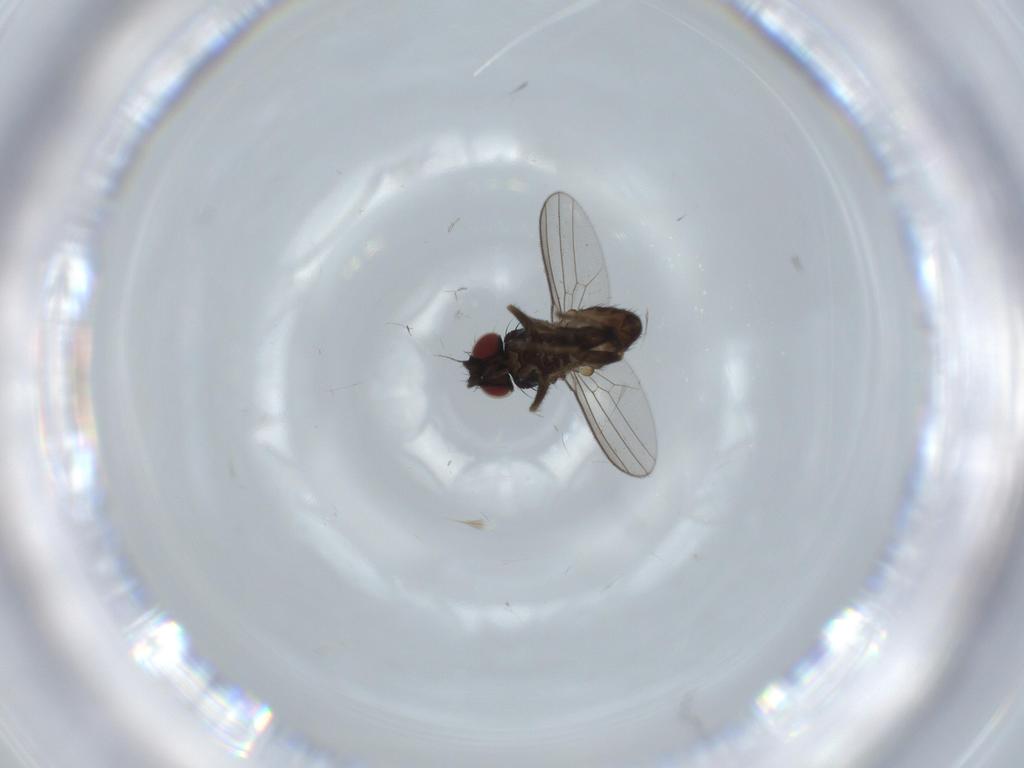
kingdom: Animalia
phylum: Arthropoda
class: Insecta
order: Diptera
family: Milichiidae
